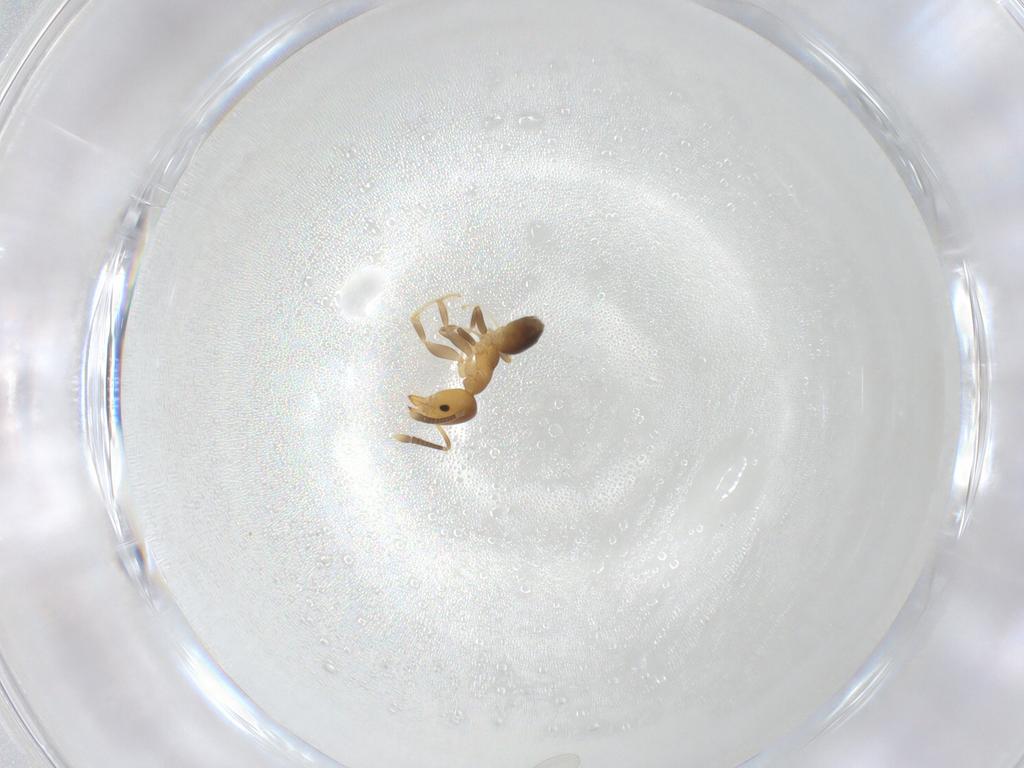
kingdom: Animalia
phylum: Arthropoda
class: Insecta
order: Hymenoptera
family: Formicidae
